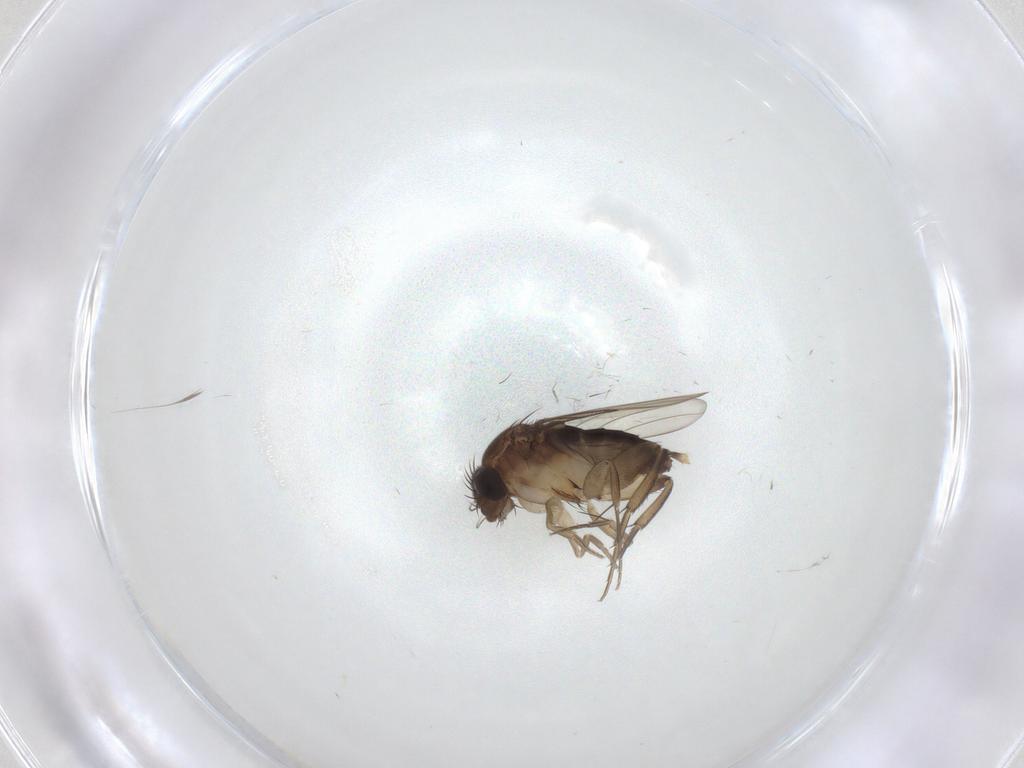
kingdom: Animalia
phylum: Arthropoda
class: Insecta
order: Diptera
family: Phoridae
